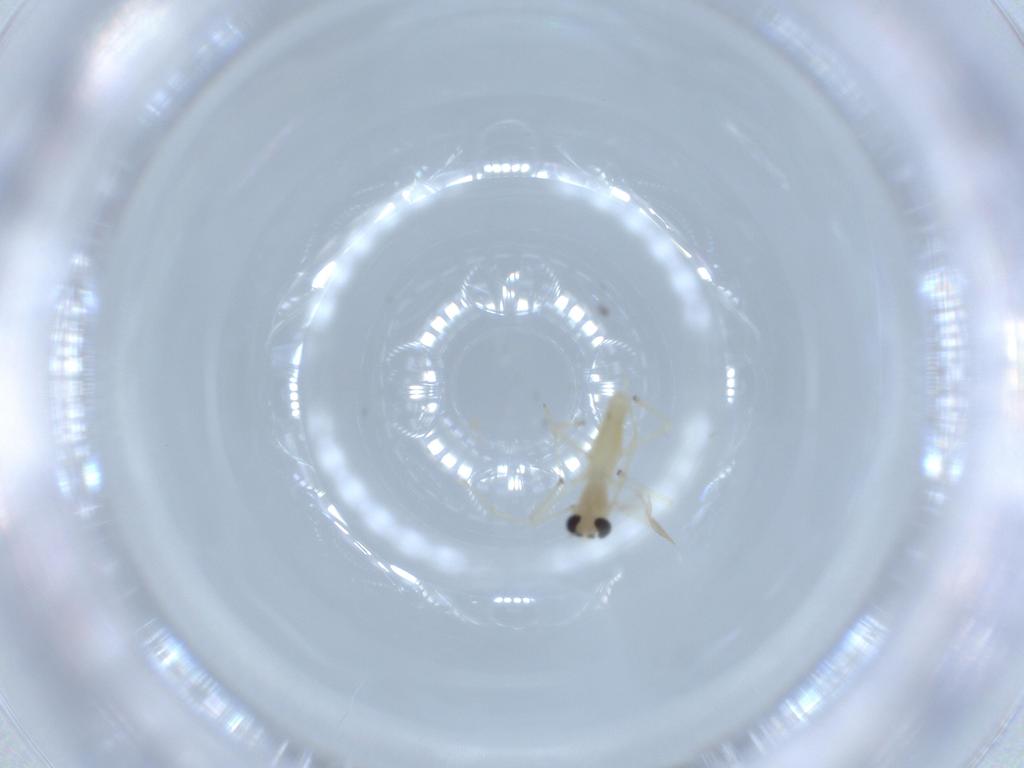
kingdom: Animalia
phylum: Arthropoda
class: Insecta
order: Diptera
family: Chironomidae
